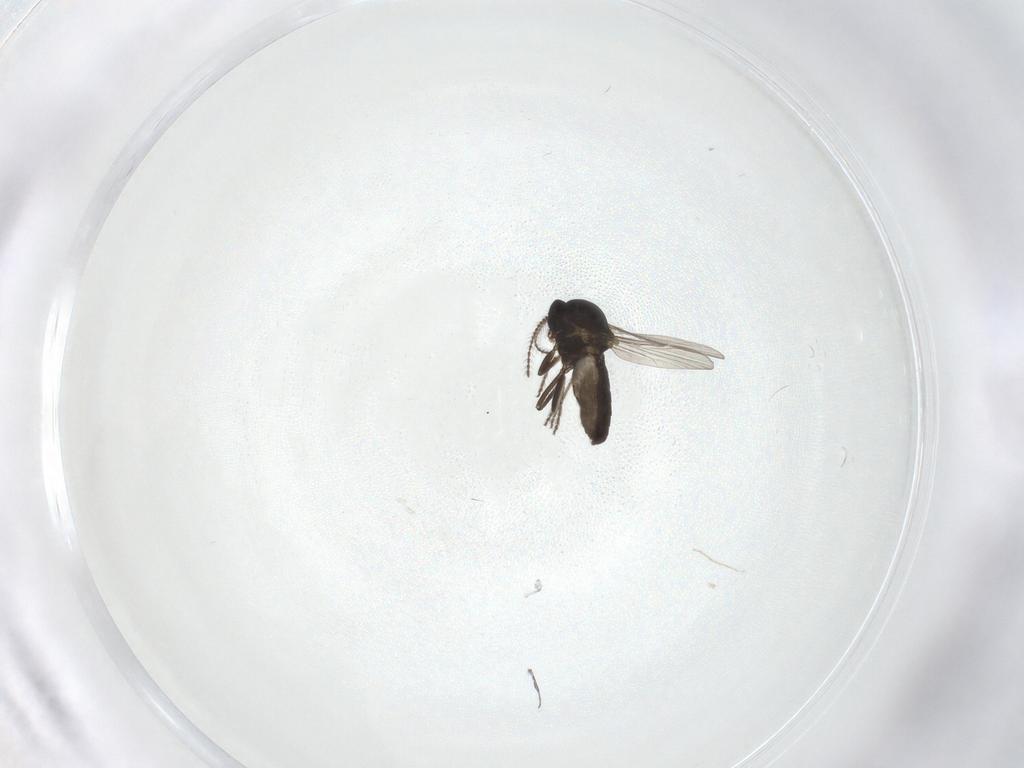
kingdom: Animalia
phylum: Arthropoda
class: Insecta
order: Diptera
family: Ceratopogonidae
